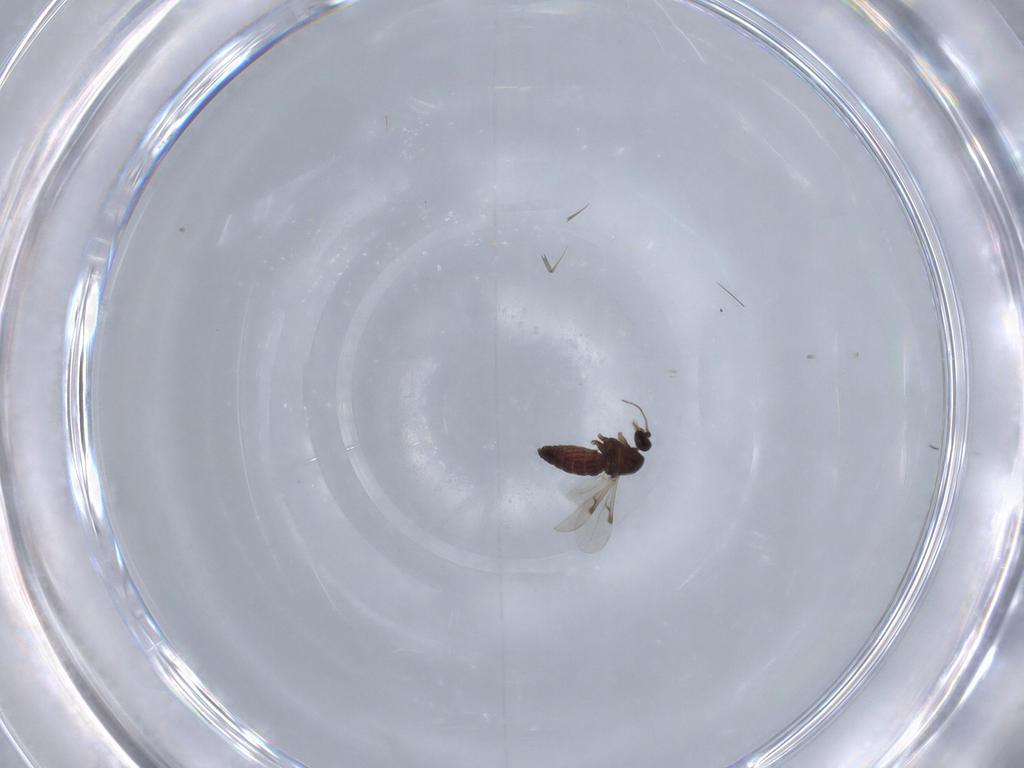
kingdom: Animalia
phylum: Arthropoda
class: Insecta
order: Diptera
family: Ceratopogonidae
